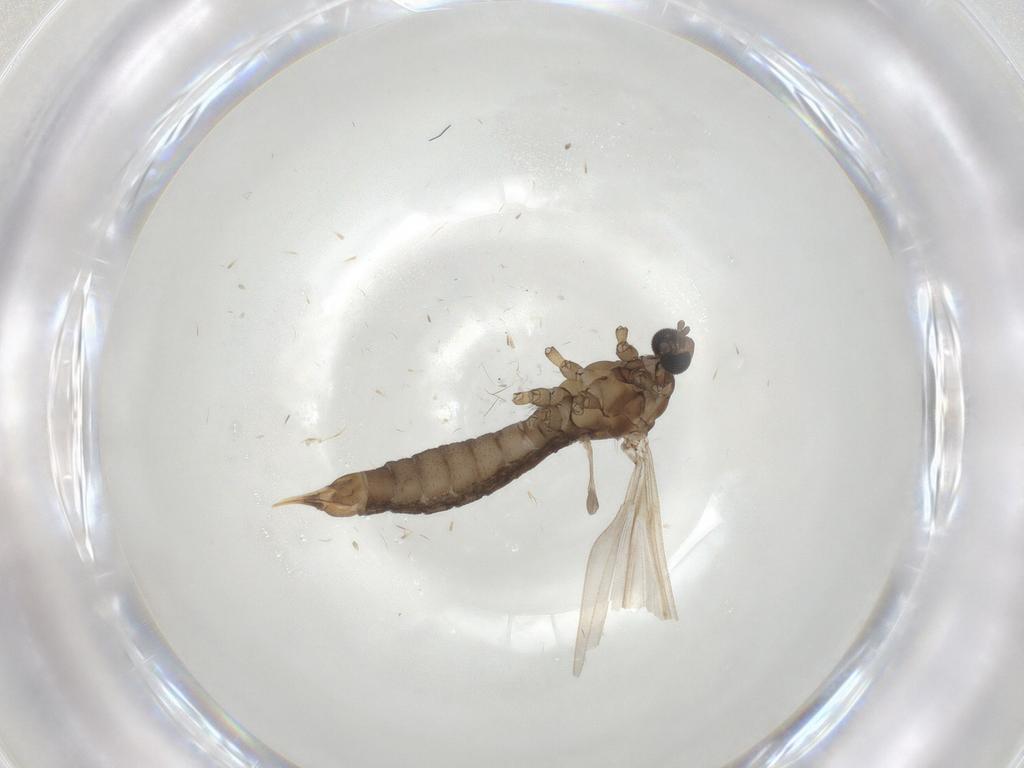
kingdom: Animalia
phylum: Arthropoda
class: Insecta
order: Diptera
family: Limoniidae
